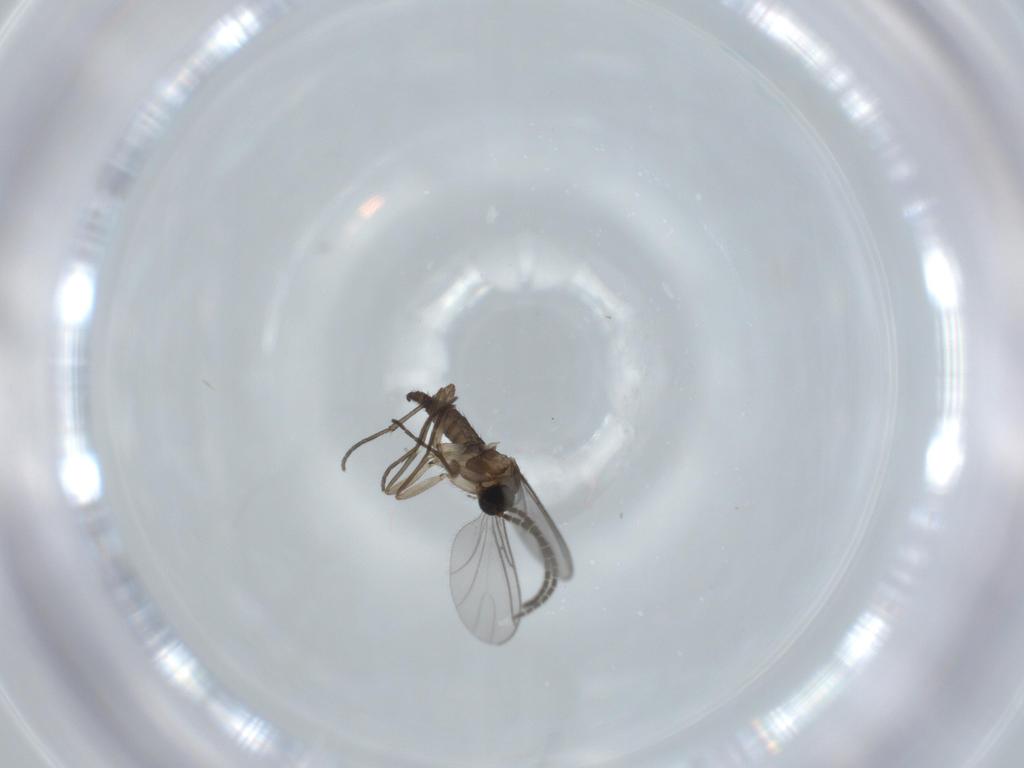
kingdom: Animalia
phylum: Arthropoda
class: Insecta
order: Diptera
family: Sciaridae
